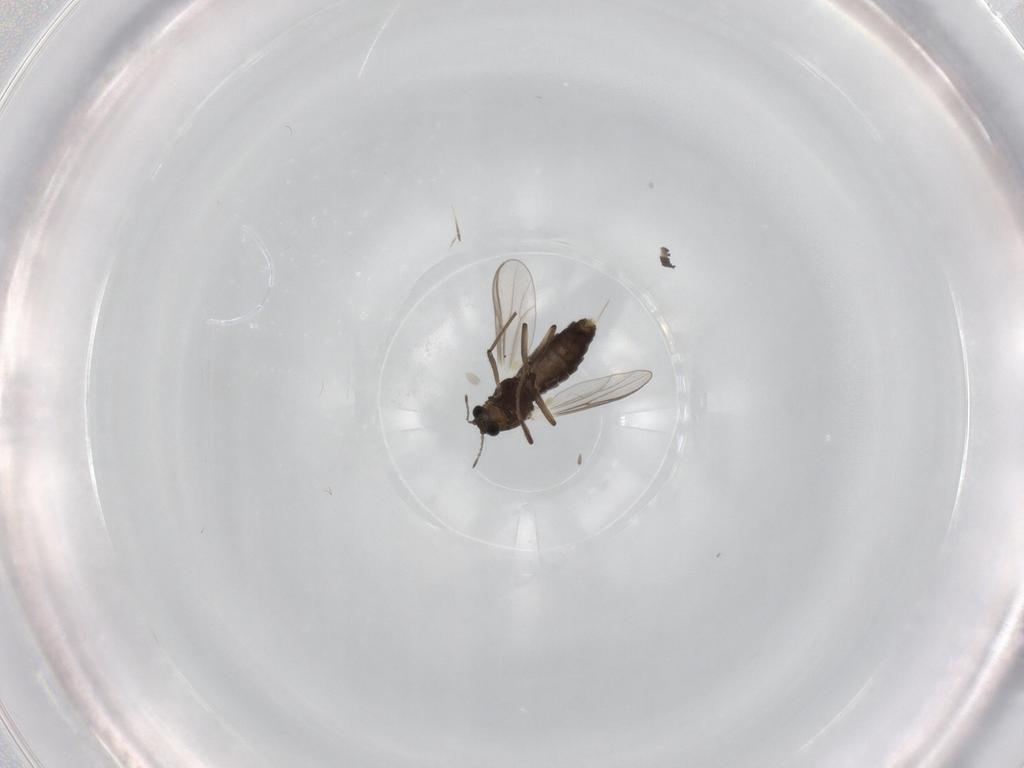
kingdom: Animalia
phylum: Arthropoda
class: Insecta
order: Diptera
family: Chironomidae
